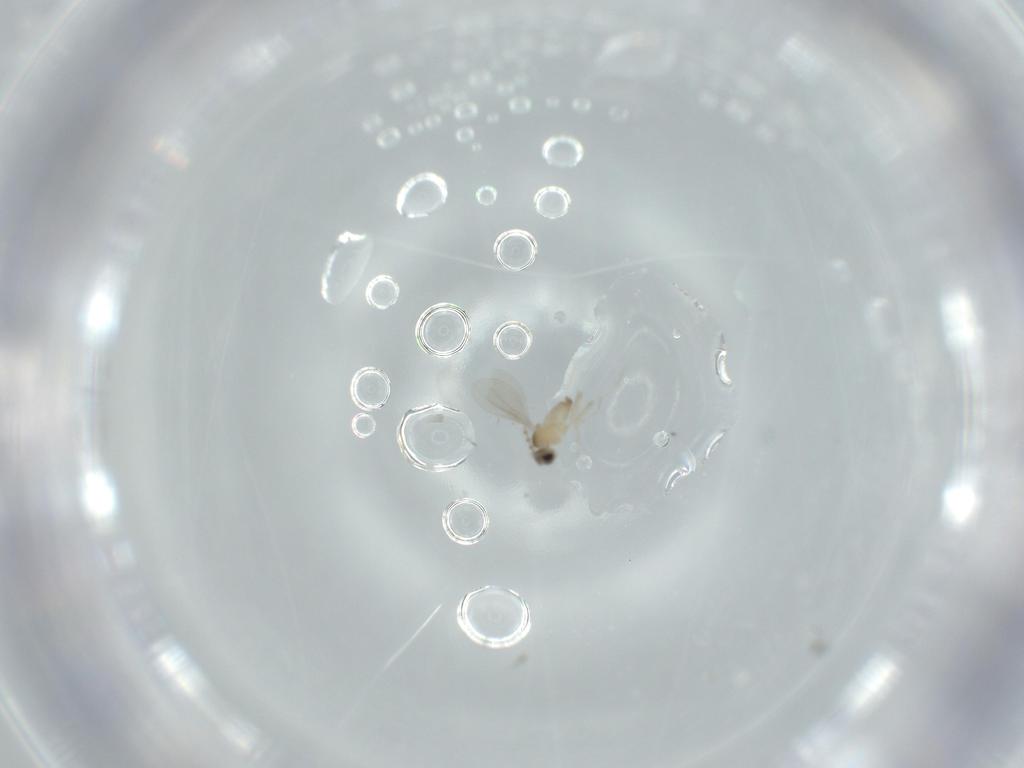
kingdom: Animalia
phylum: Arthropoda
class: Insecta
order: Diptera
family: Cecidomyiidae
